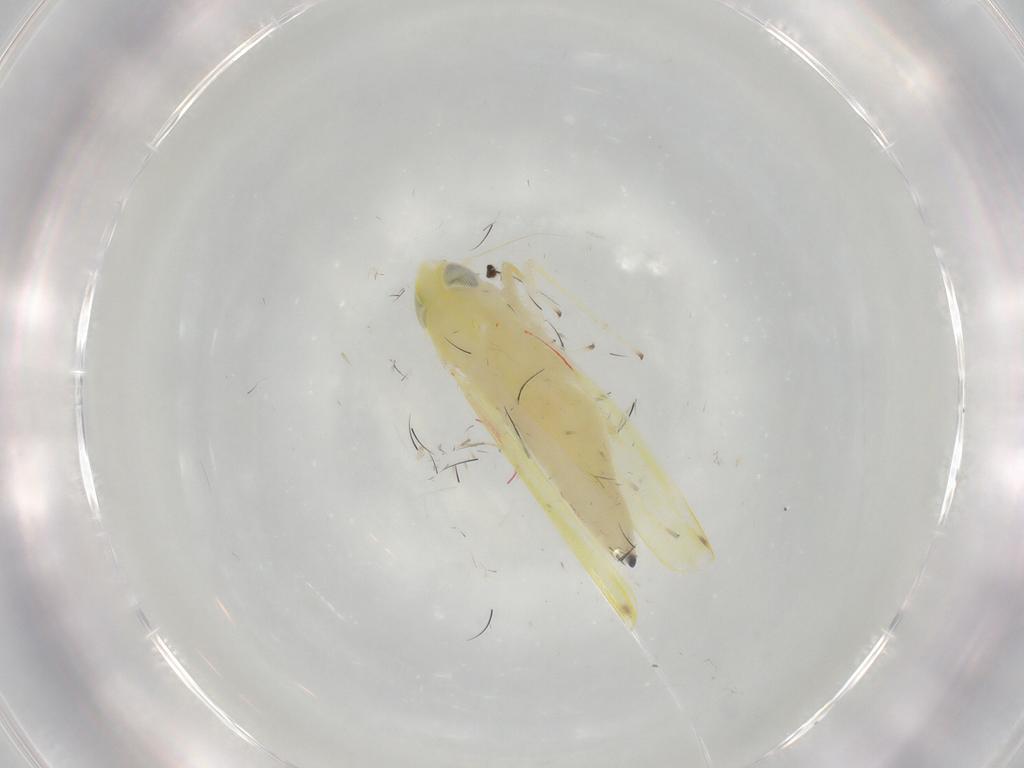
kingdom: Animalia
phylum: Arthropoda
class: Insecta
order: Hemiptera
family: Cicadellidae
